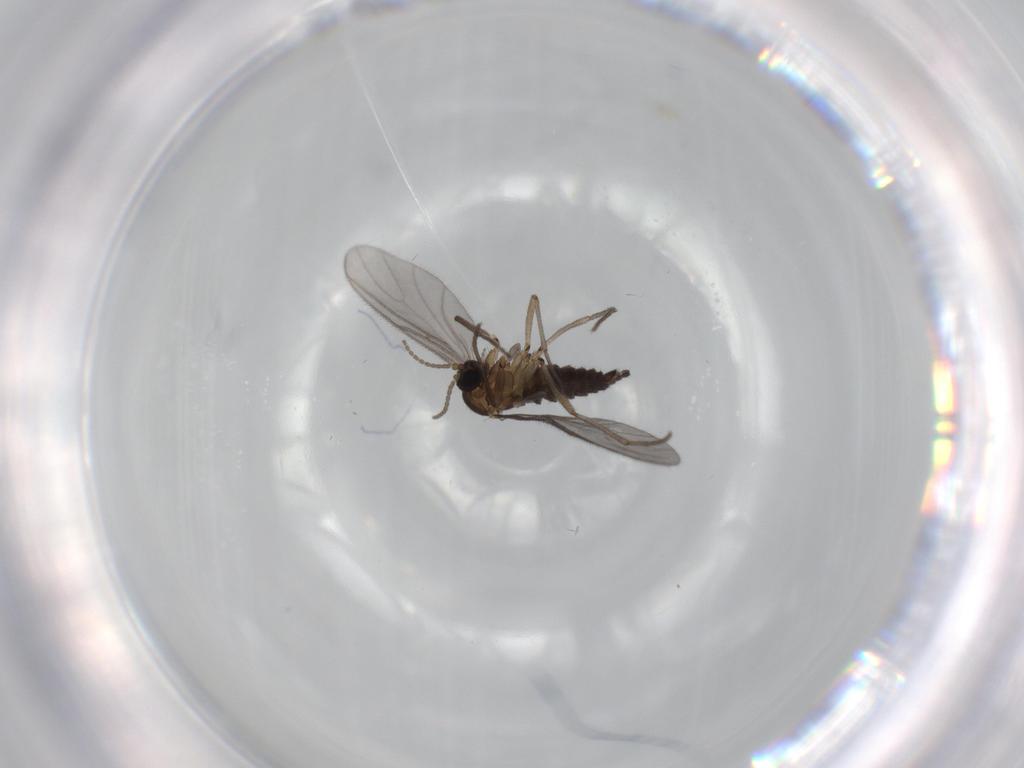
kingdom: Animalia
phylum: Arthropoda
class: Insecta
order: Diptera
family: Sciaridae
